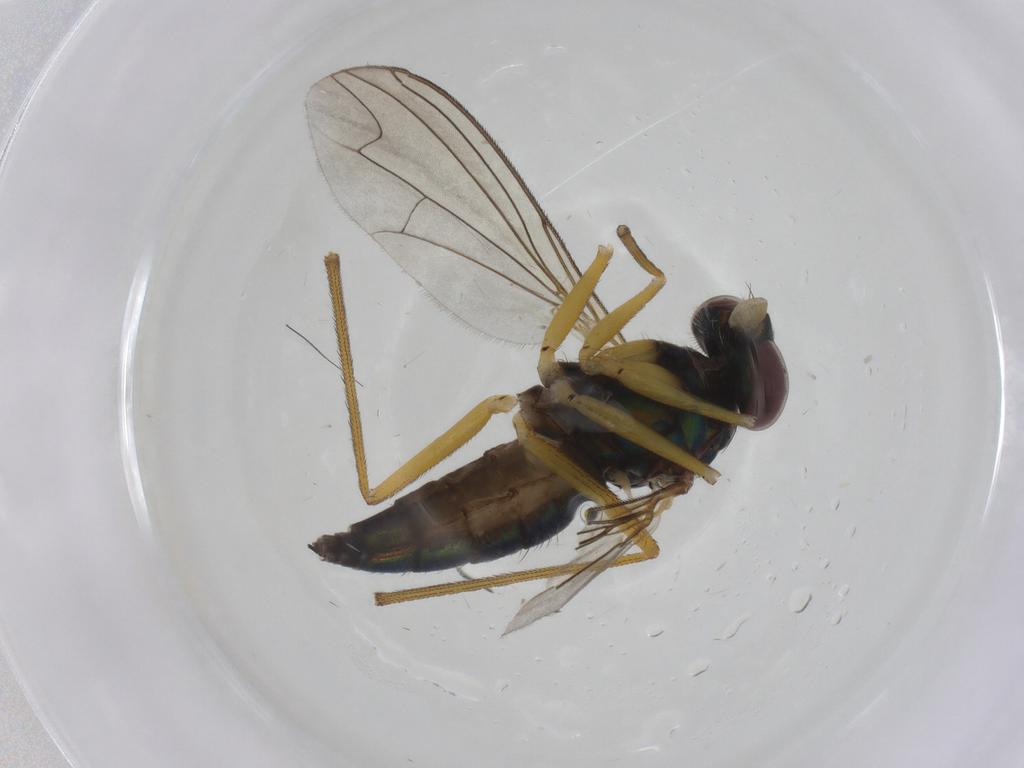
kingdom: Animalia
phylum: Arthropoda
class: Insecta
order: Diptera
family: Dolichopodidae
